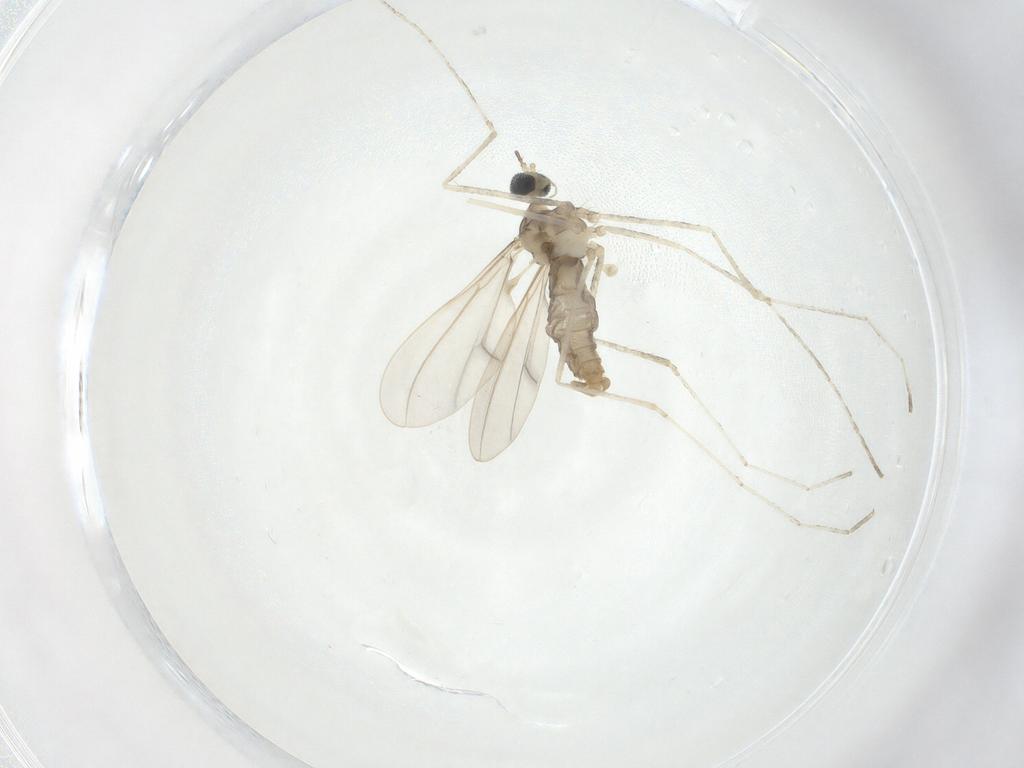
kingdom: Animalia
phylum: Arthropoda
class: Insecta
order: Diptera
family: Cecidomyiidae
